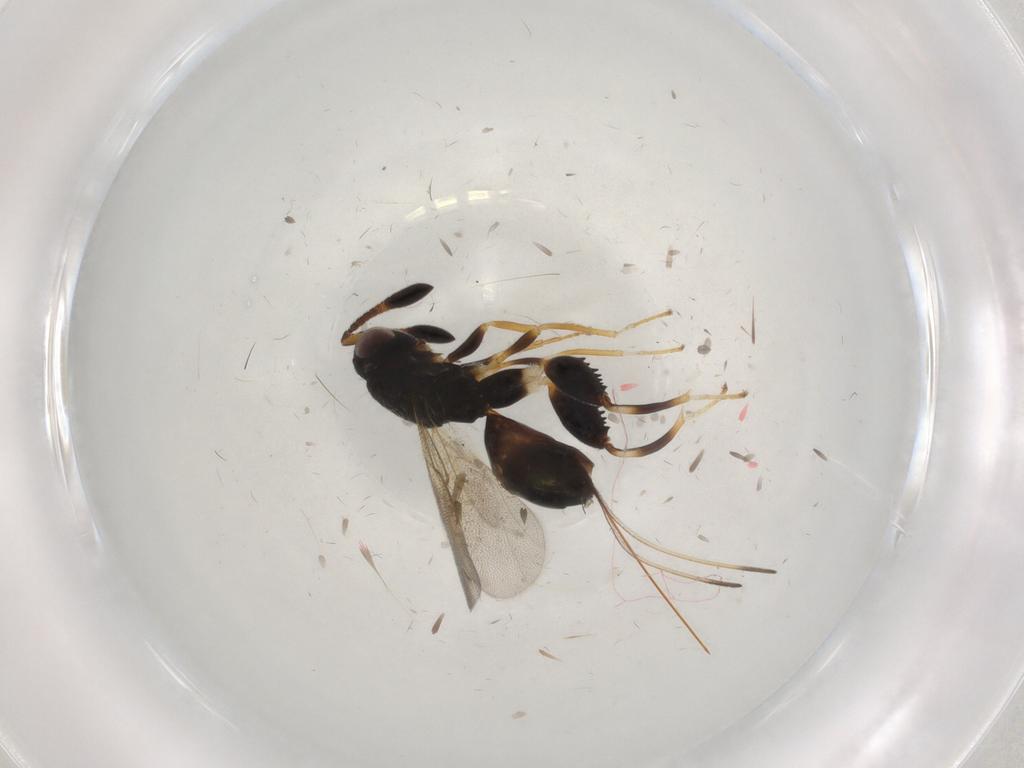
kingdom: Animalia
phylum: Arthropoda
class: Insecta
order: Hymenoptera
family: Torymidae
